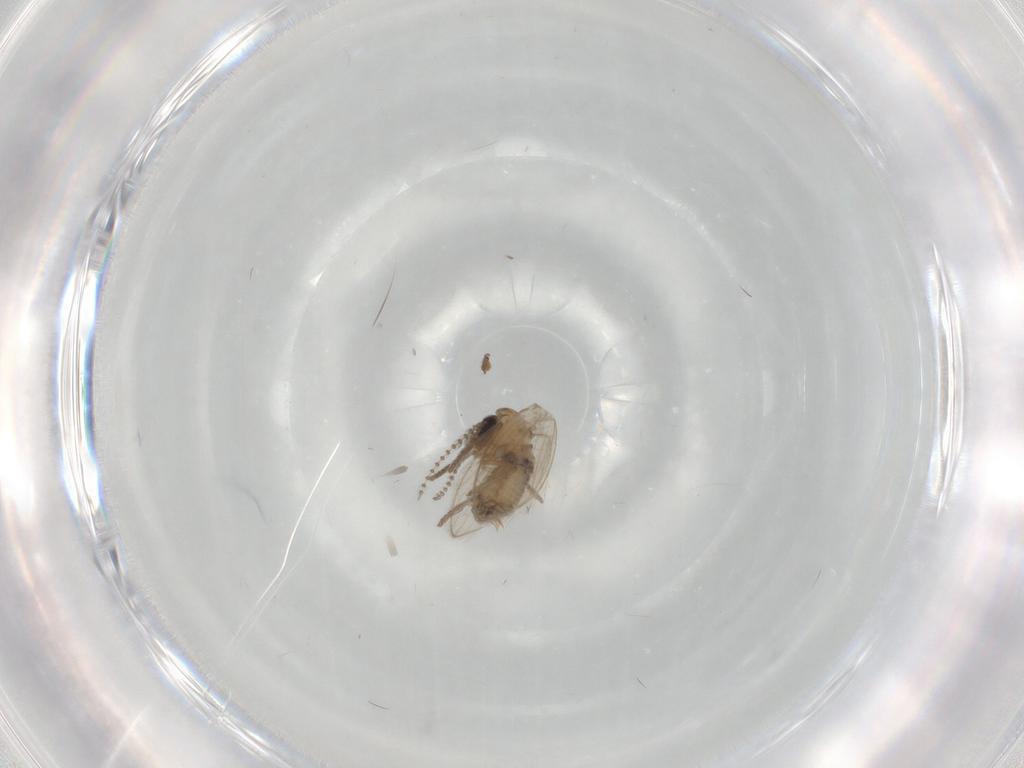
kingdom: Animalia
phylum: Arthropoda
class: Insecta
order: Diptera
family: Psychodidae
